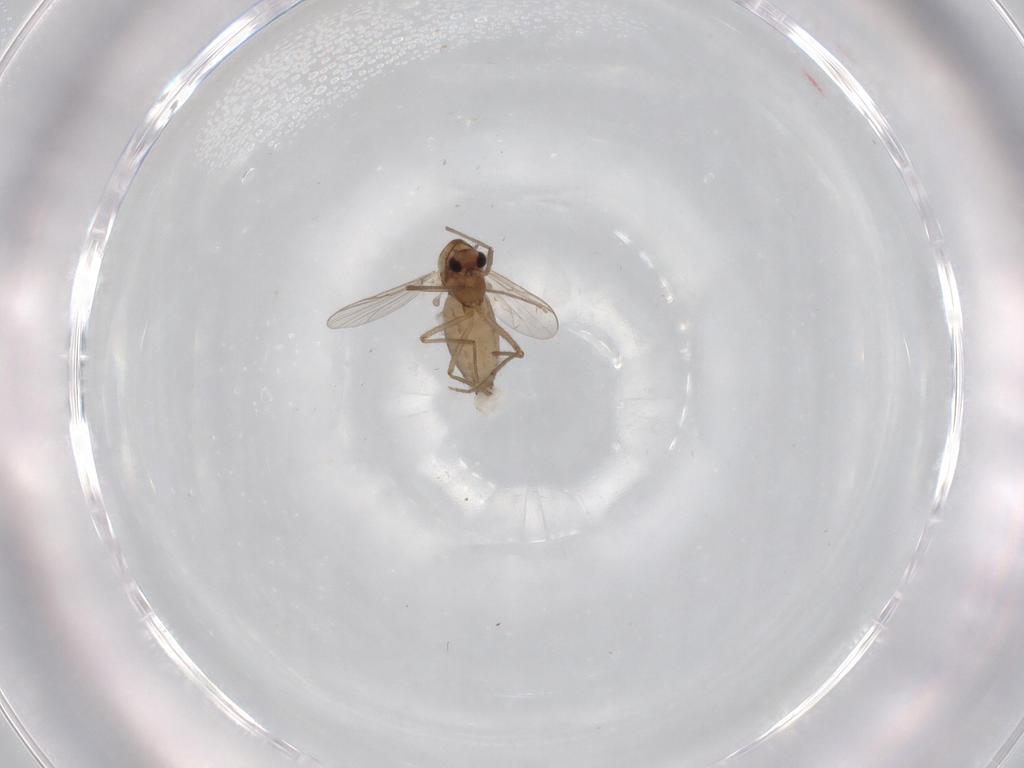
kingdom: Animalia
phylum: Arthropoda
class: Insecta
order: Diptera
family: Chironomidae
